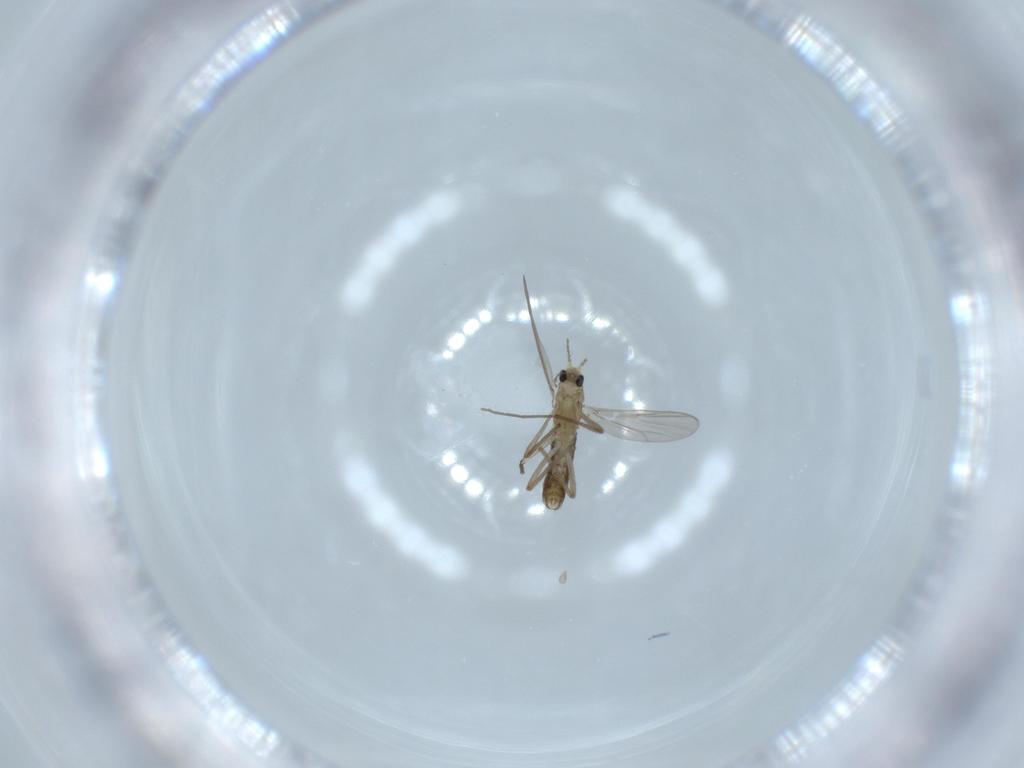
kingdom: Animalia
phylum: Arthropoda
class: Insecta
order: Diptera
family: Chironomidae
